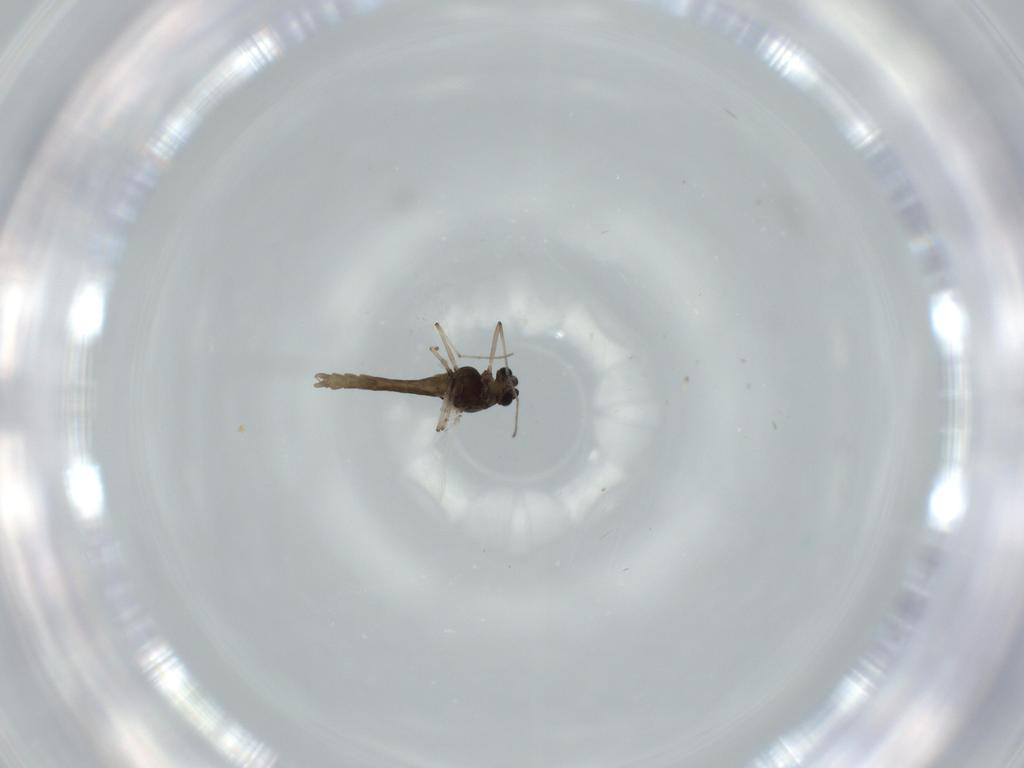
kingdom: Animalia
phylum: Arthropoda
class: Insecta
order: Diptera
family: Chironomidae
